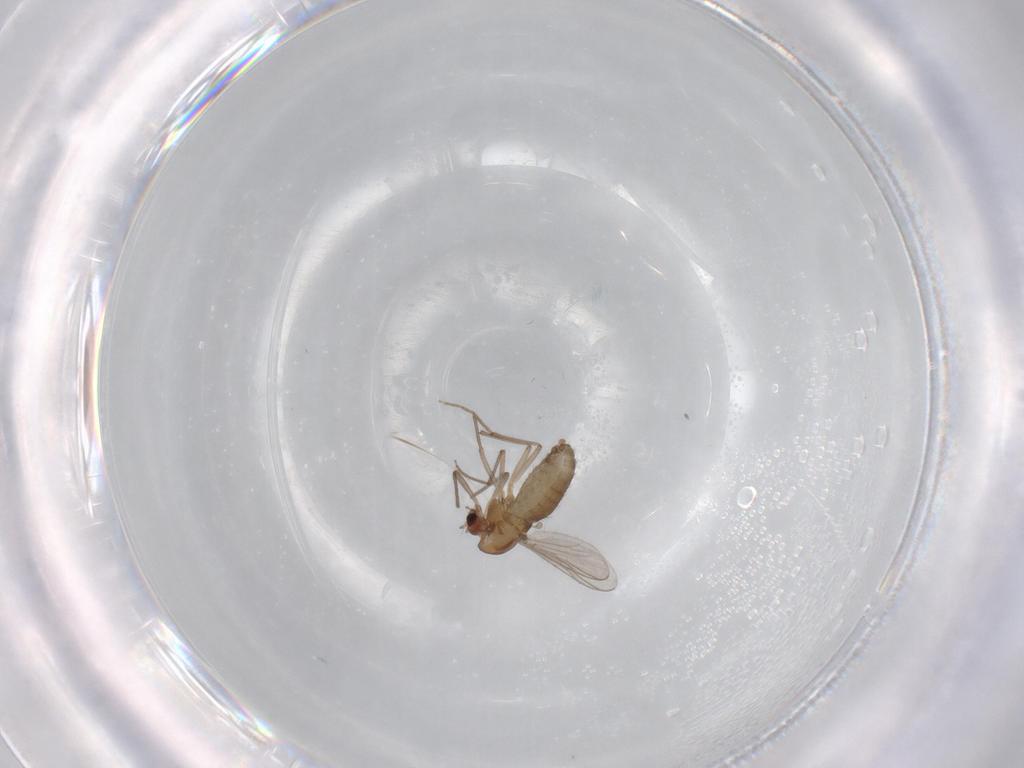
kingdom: Animalia
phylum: Arthropoda
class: Insecta
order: Diptera
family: Chironomidae
